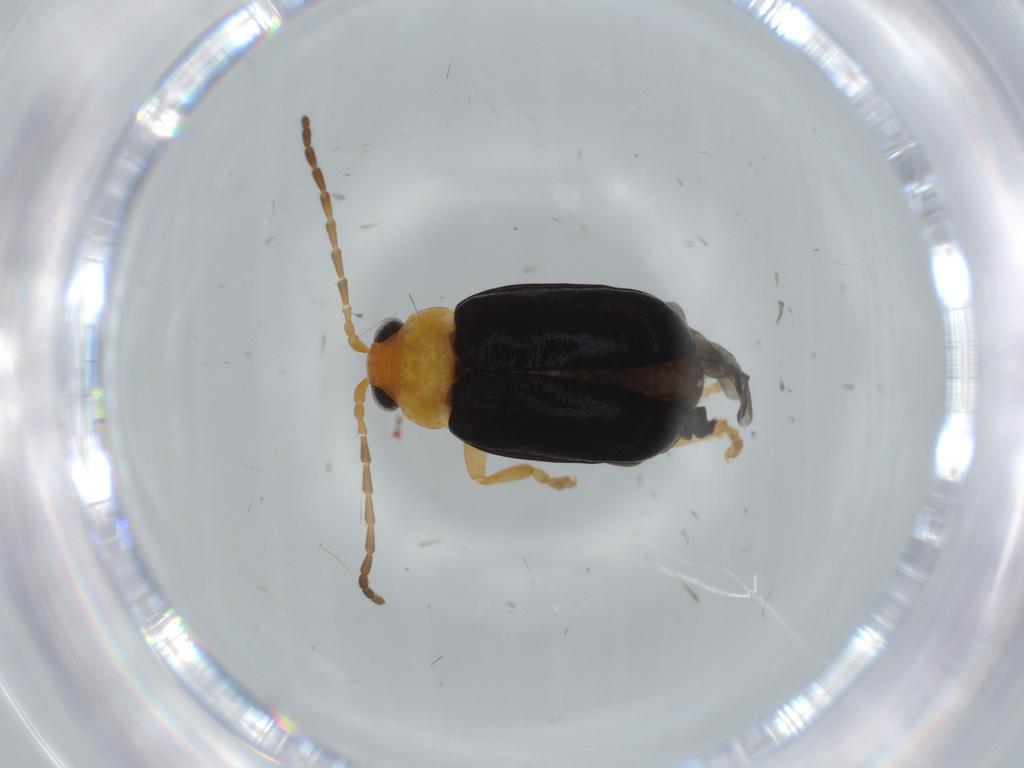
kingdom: Animalia
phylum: Arthropoda
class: Insecta
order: Coleoptera
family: Chrysomelidae
